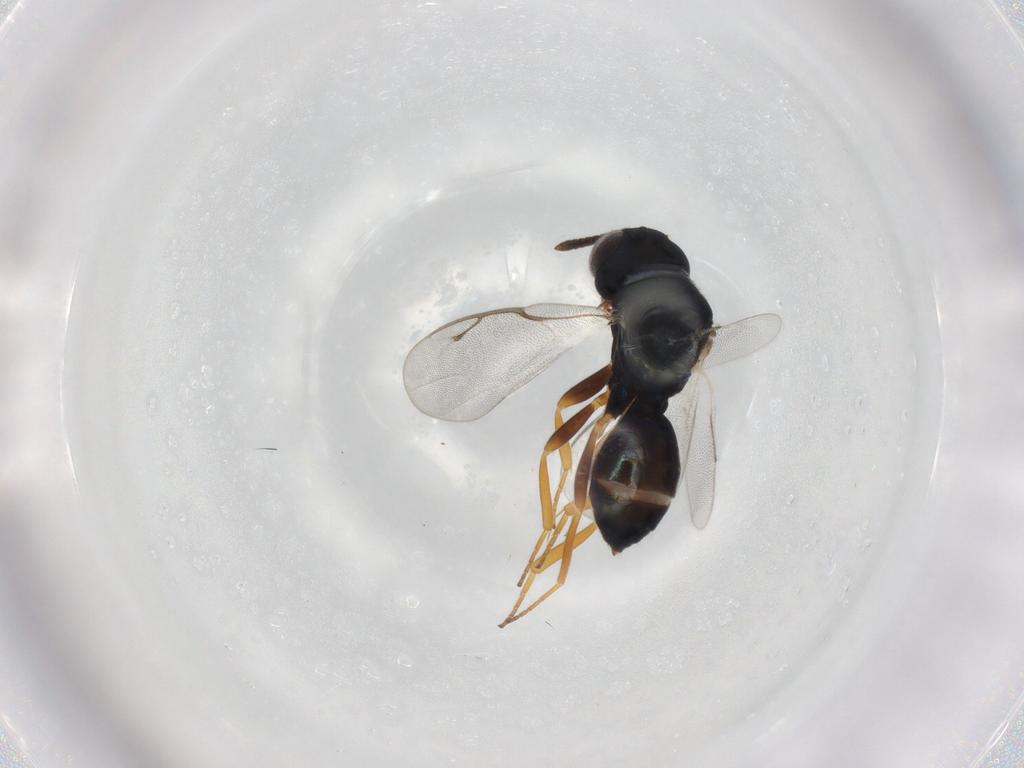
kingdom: Animalia
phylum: Arthropoda
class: Insecta
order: Hymenoptera
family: Pteromalidae
